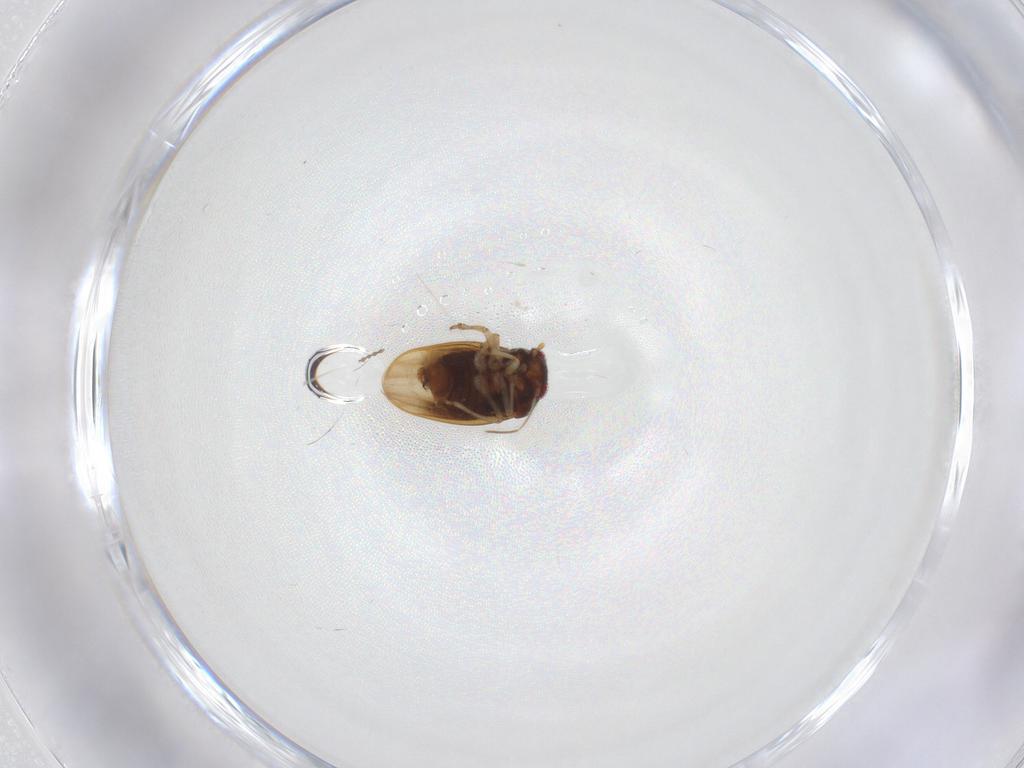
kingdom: Animalia
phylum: Arthropoda
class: Insecta
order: Hemiptera
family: Schizopteridae
